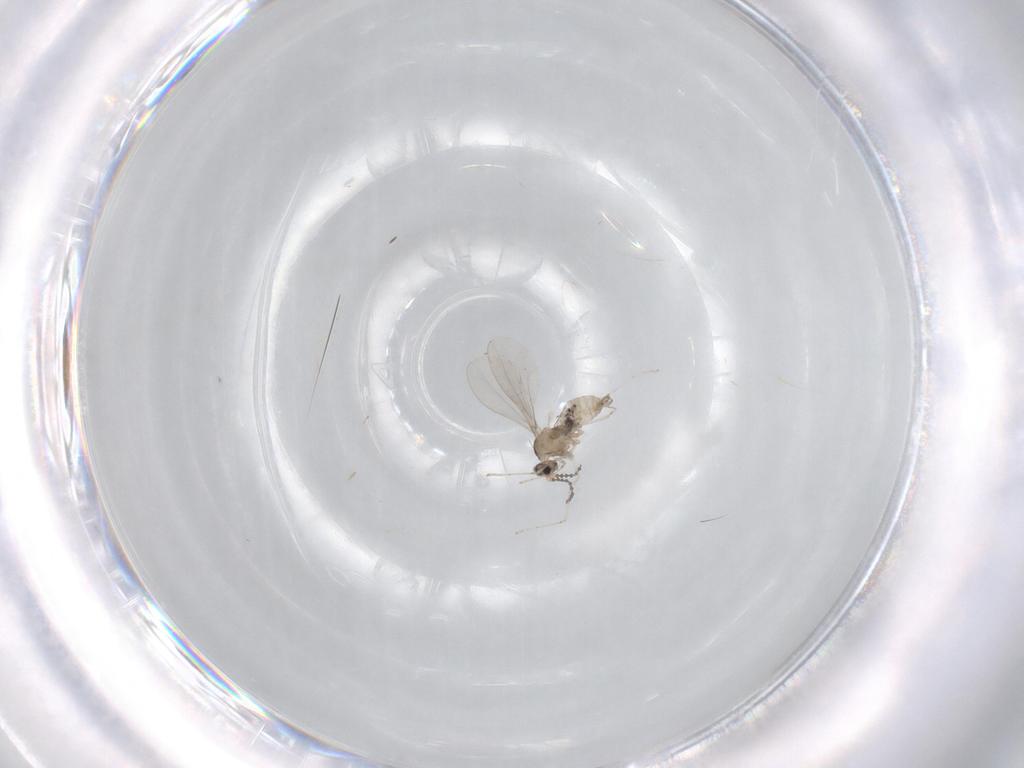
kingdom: Animalia
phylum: Arthropoda
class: Insecta
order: Diptera
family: Cecidomyiidae
